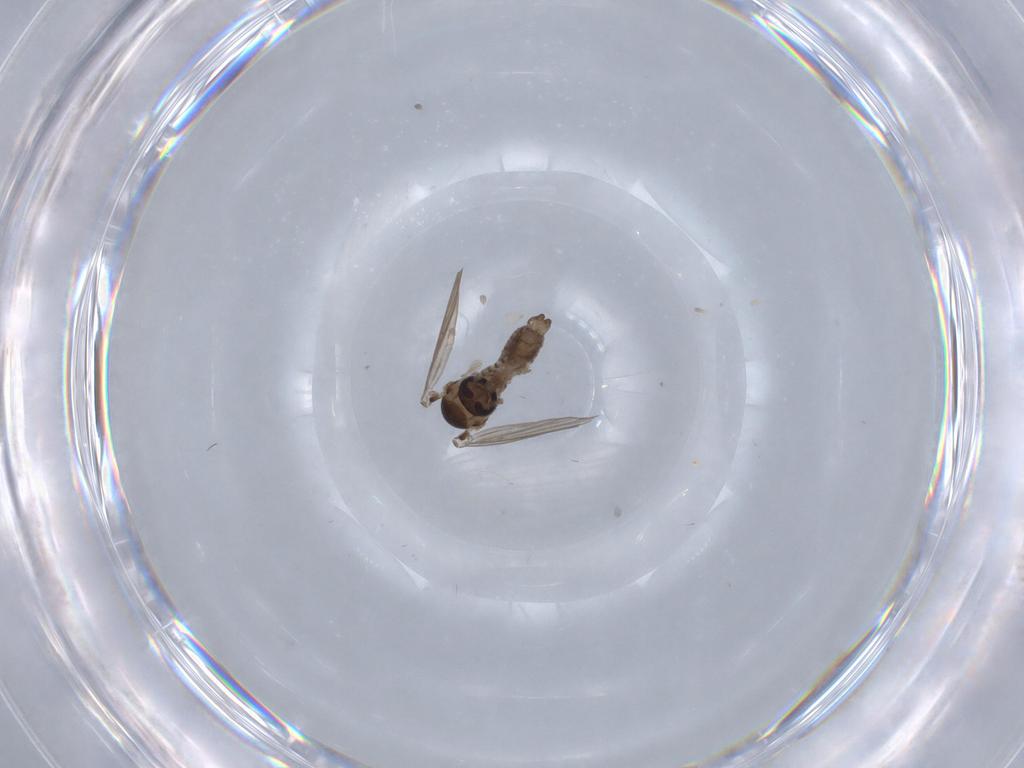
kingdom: Animalia
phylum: Arthropoda
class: Insecta
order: Diptera
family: Psychodidae
